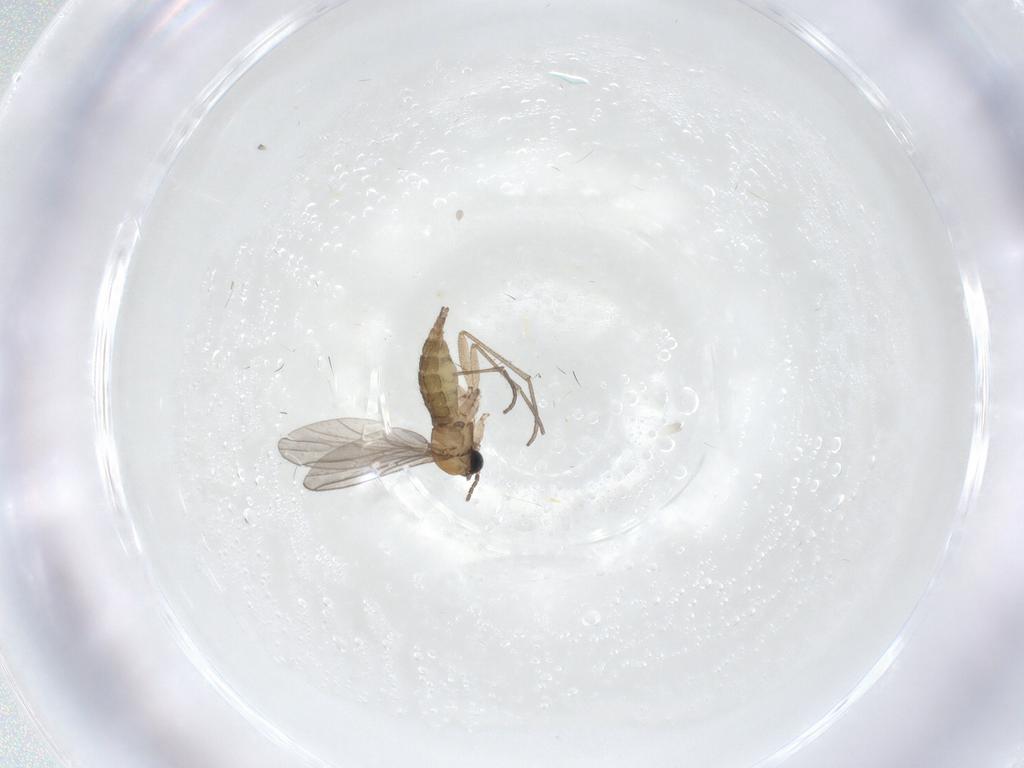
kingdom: Animalia
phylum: Arthropoda
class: Insecta
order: Diptera
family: Sciaridae
